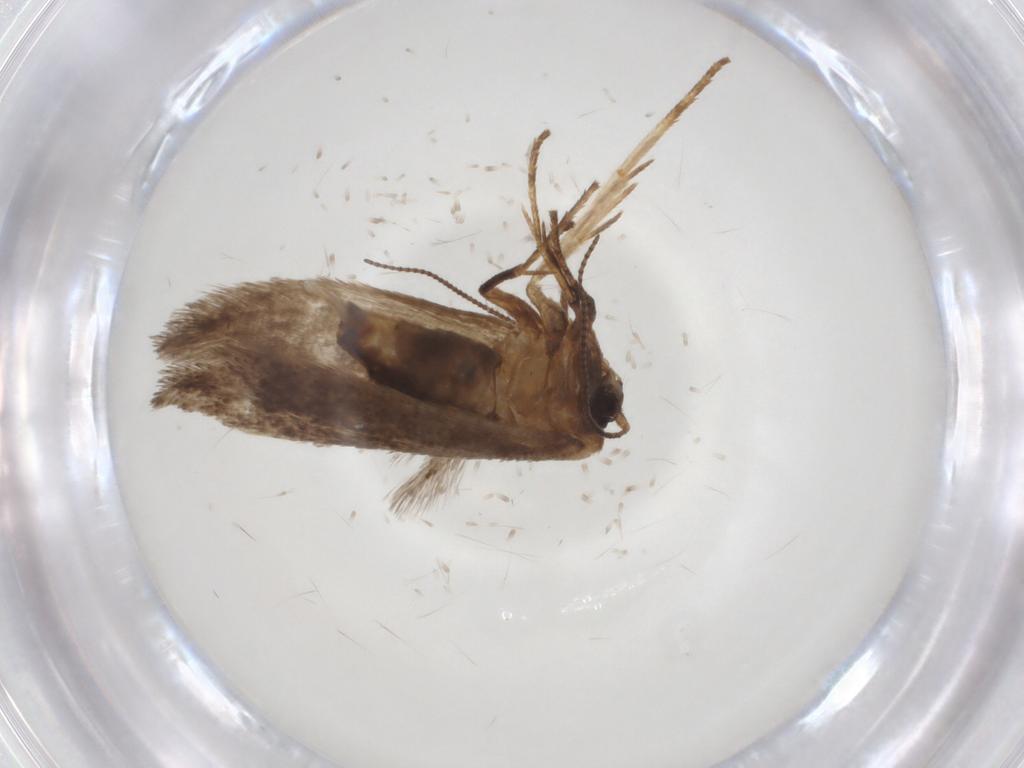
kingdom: Animalia
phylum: Arthropoda
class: Insecta
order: Lepidoptera
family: Nepticulidae
